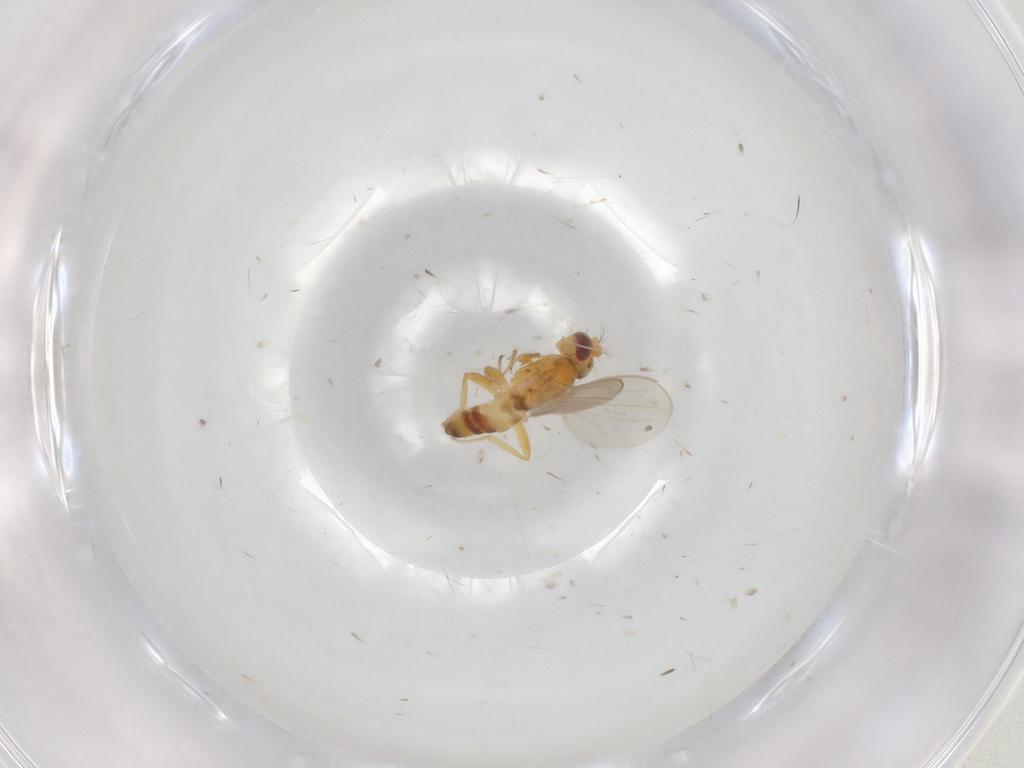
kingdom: Animalia
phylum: Arthropoda
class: Insecta
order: Diptera
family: Periscelididae
